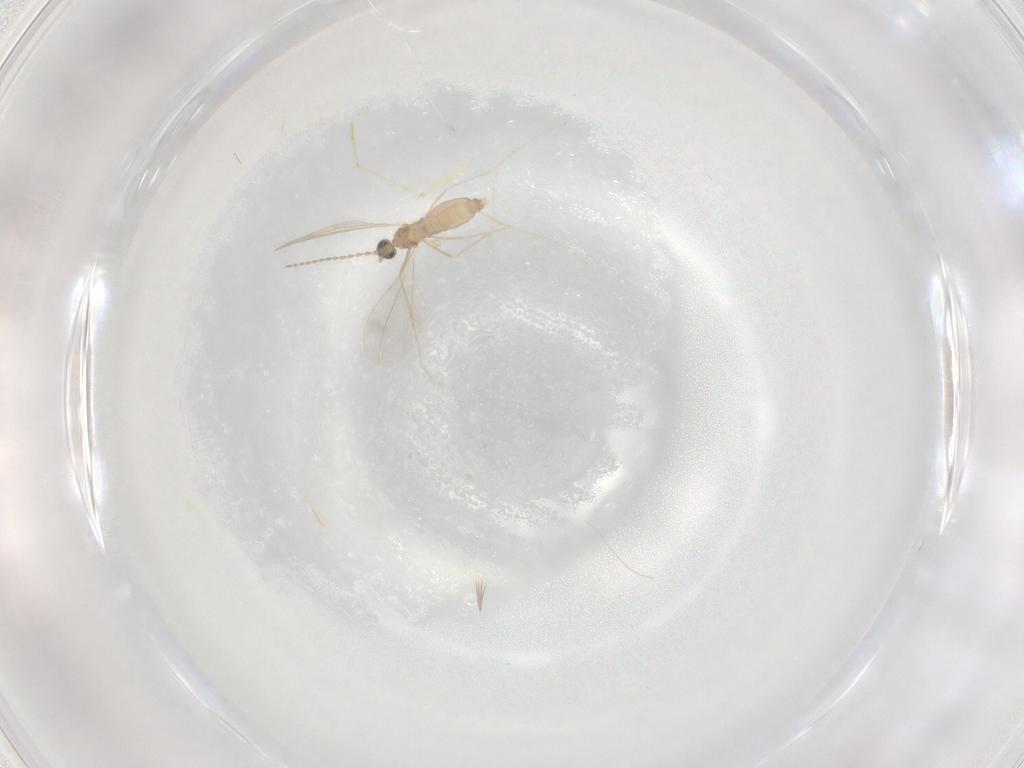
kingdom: Animalia
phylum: Arthropoda
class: Insecta
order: Diptera
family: Cecidomyiidae
